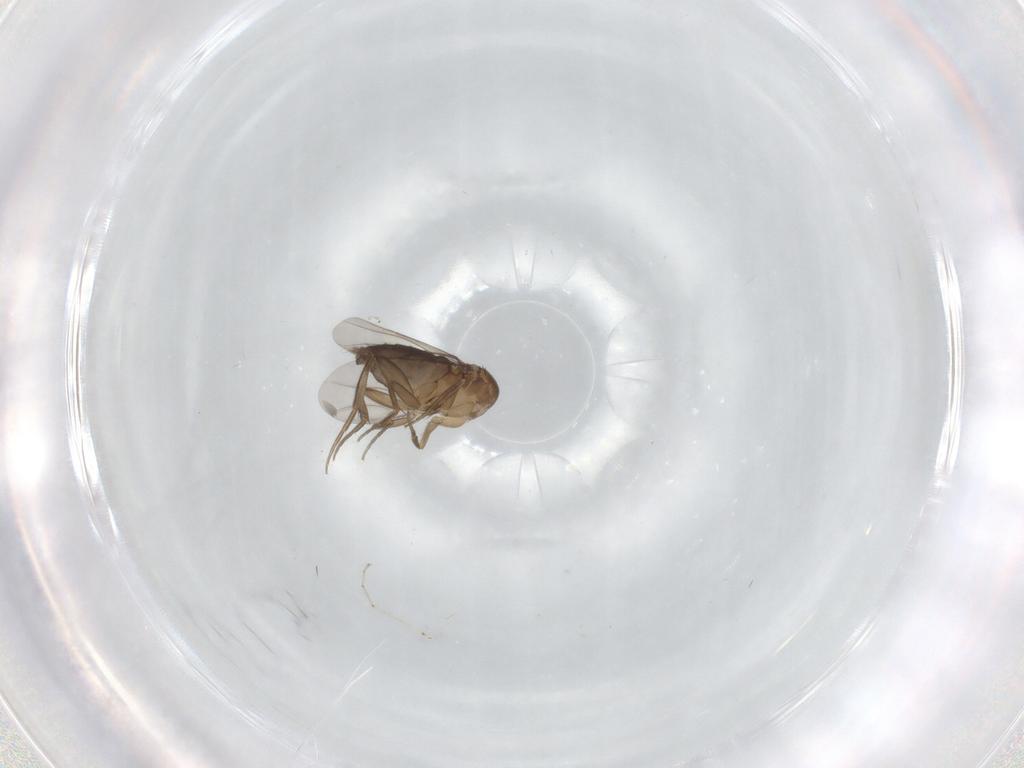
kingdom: Animalia
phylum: Arthropoda
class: Insecta
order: Diptera
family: Phoridae
